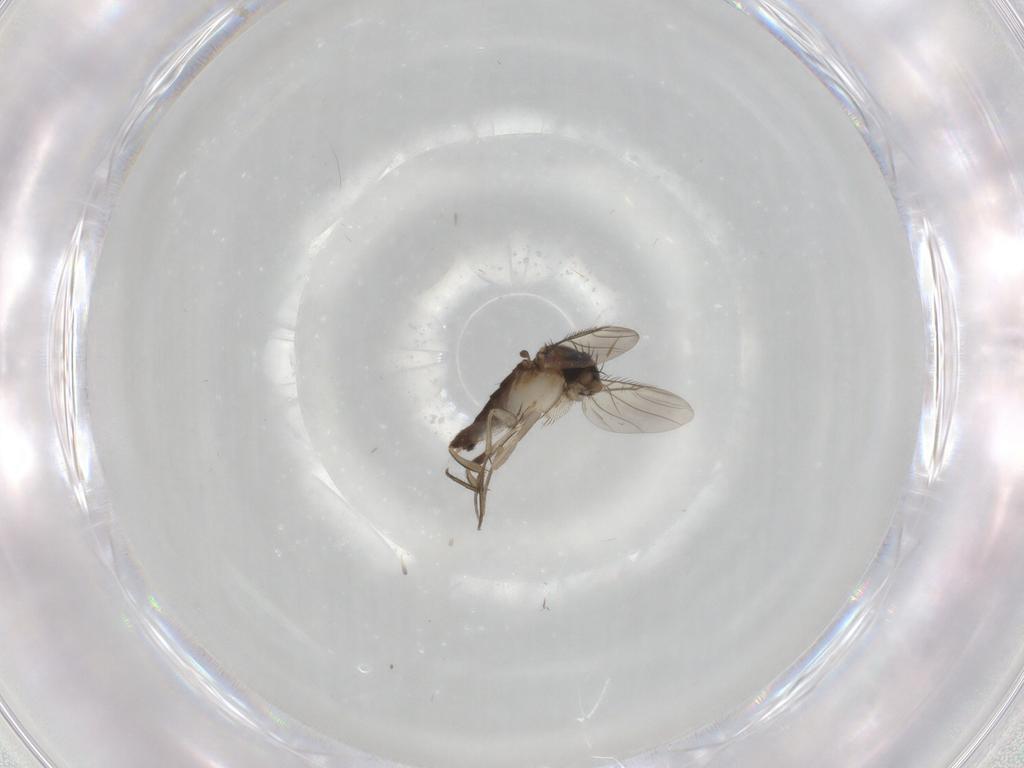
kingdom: Animalia
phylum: Arthropoda
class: Insecta
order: Diptera
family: Phoridae
